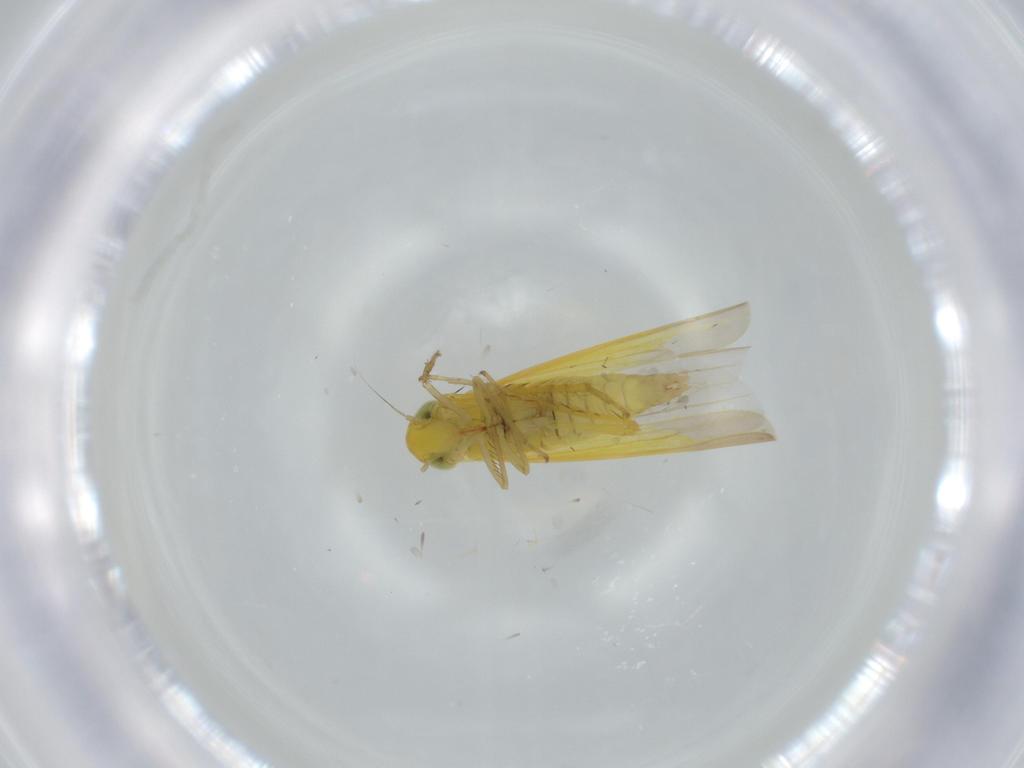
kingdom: Animalia
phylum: Arthropoda
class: Insecta
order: Hemiptera
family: Cicadellidae
